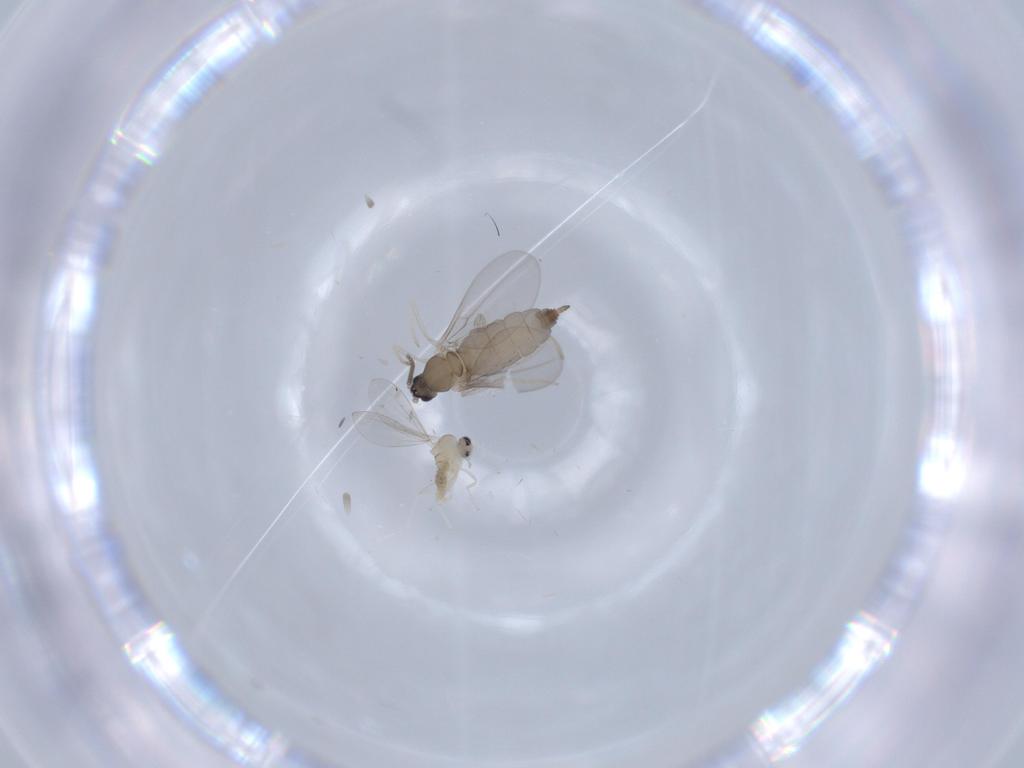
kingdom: Animalia
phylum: Arthropoda
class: Insecta
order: Diptera
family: Cecidomyiidae
